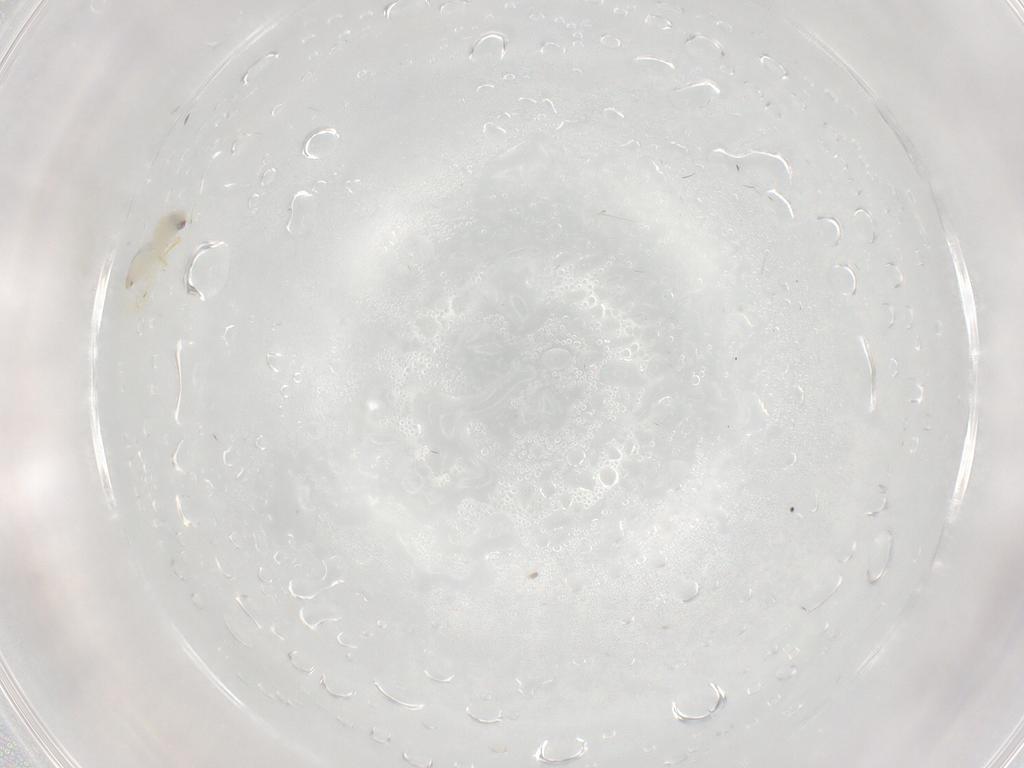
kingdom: Animalia
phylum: Arthropoda
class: Insecta
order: Hemiptera
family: Aleyrodidae
